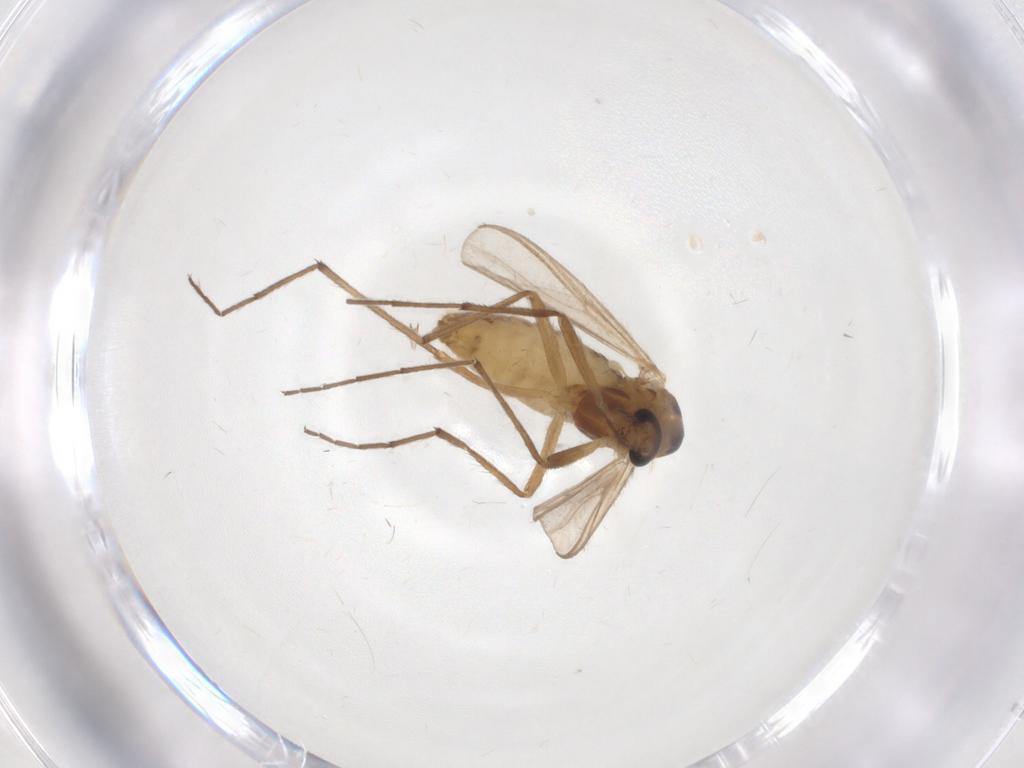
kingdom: Animalia
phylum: Arthropoda
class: Insecta
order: Diptera
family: Chironomidae
